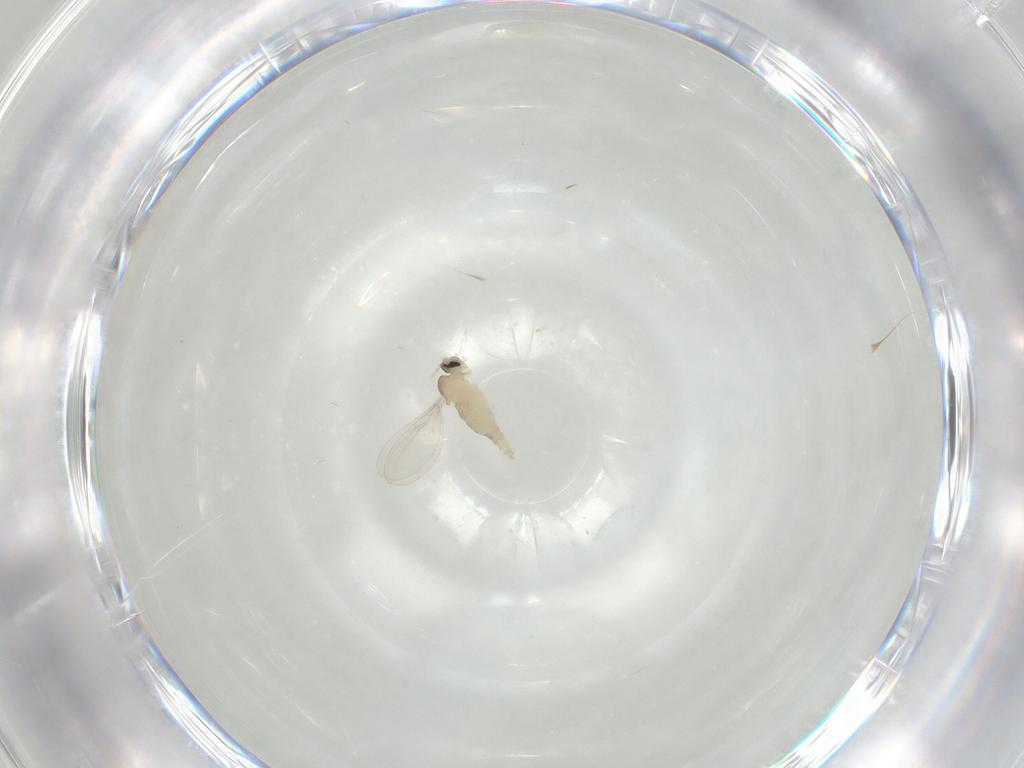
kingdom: Animalia
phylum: Arthropoda
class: Insecta
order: Diptera
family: Cecidomyiidae
